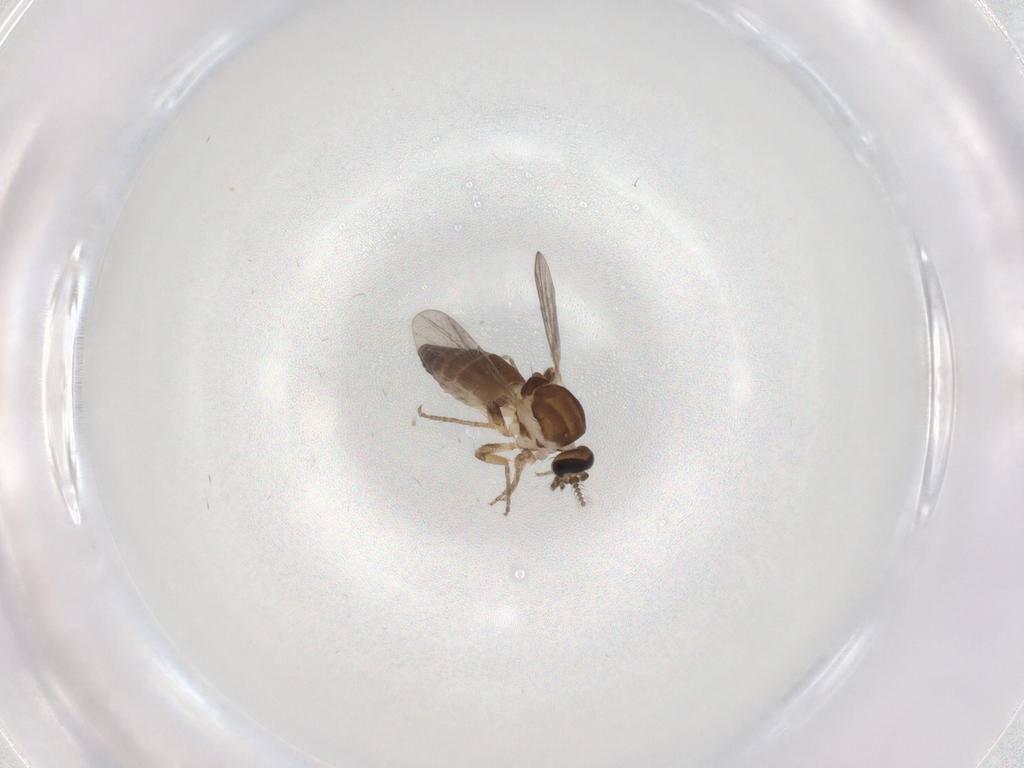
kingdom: Animalia
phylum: Arthropoda
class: Insecta
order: Diptera
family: Ceratopogonidae
